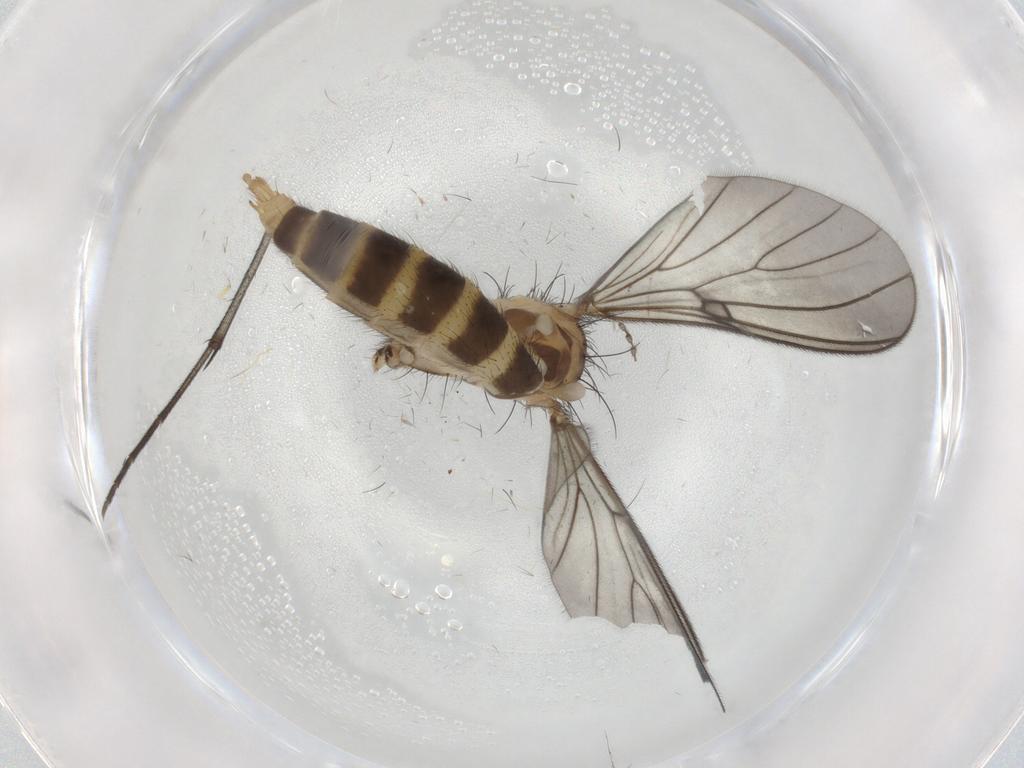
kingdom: Animalia
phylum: Arthropoda
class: Insecta
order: Diptera
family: Mycetophilidae
